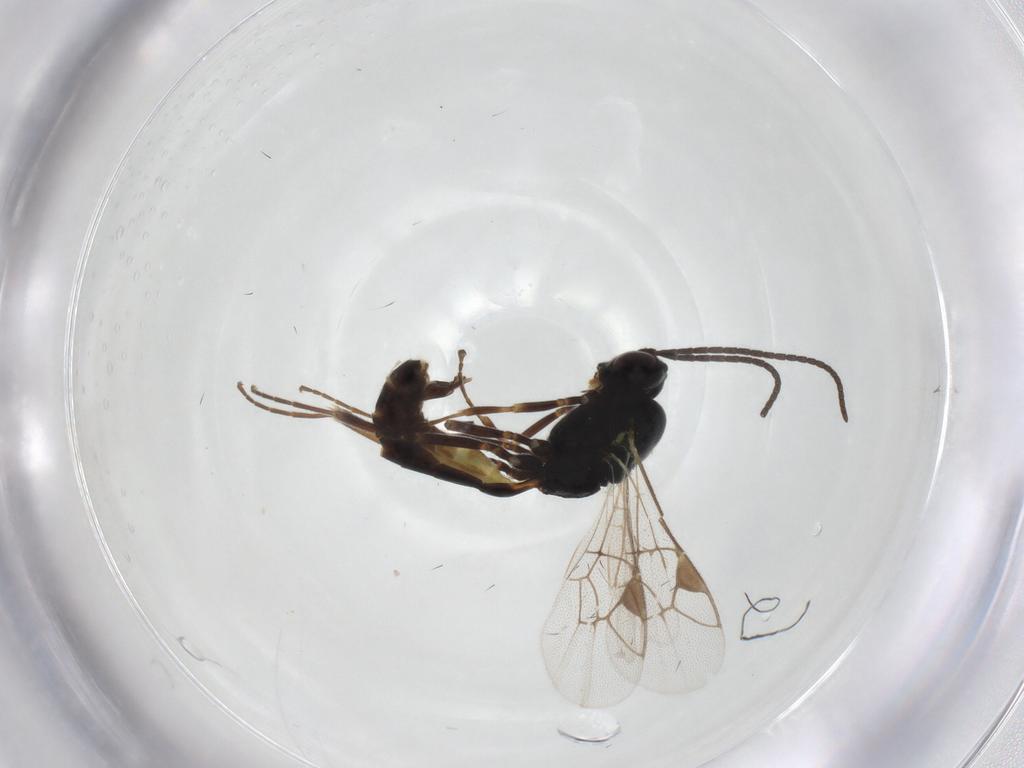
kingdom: Animalia
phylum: Arthropoda
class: Insecta
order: Hymenoptera
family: Ichneumonidae
